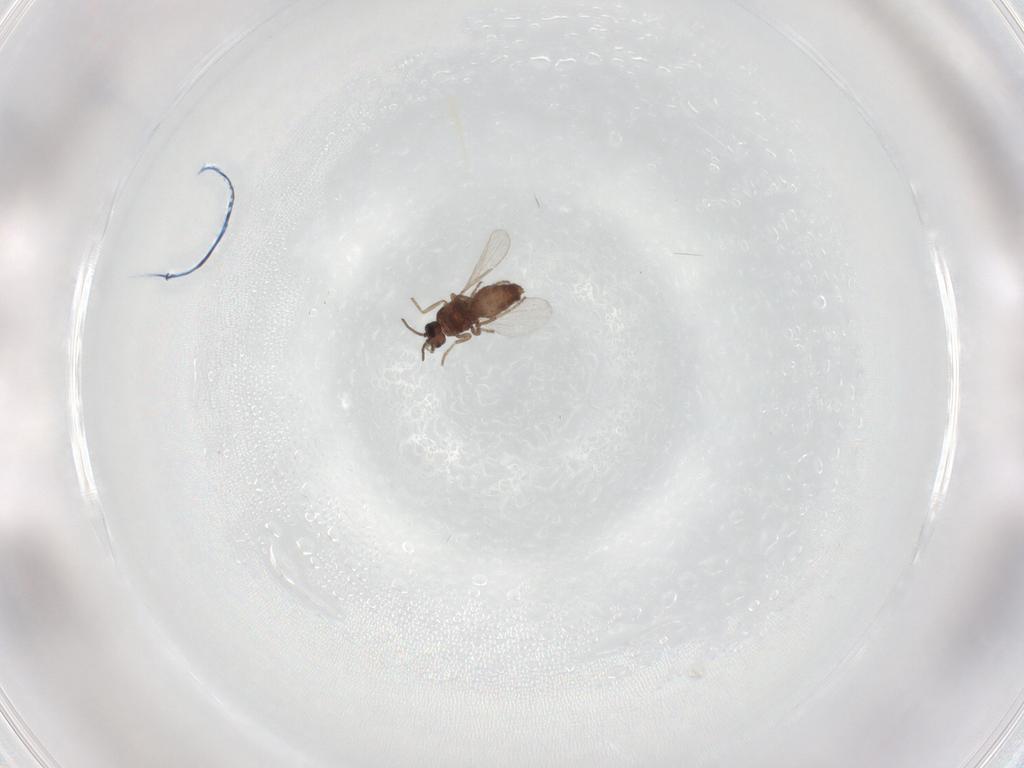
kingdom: Animalia
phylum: Arthropoda
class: Insecta
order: Diptera
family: Ceratopogonidae
